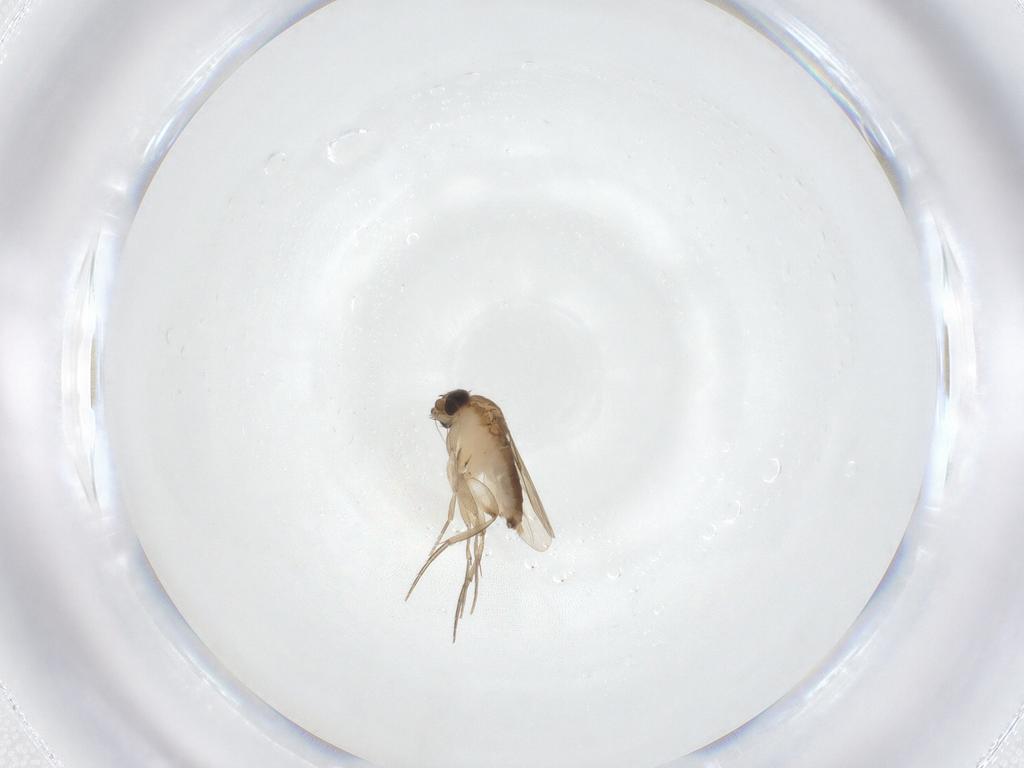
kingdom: Animalia
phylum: Arthropoda
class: Insecta
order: Diptera
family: Phoridae
